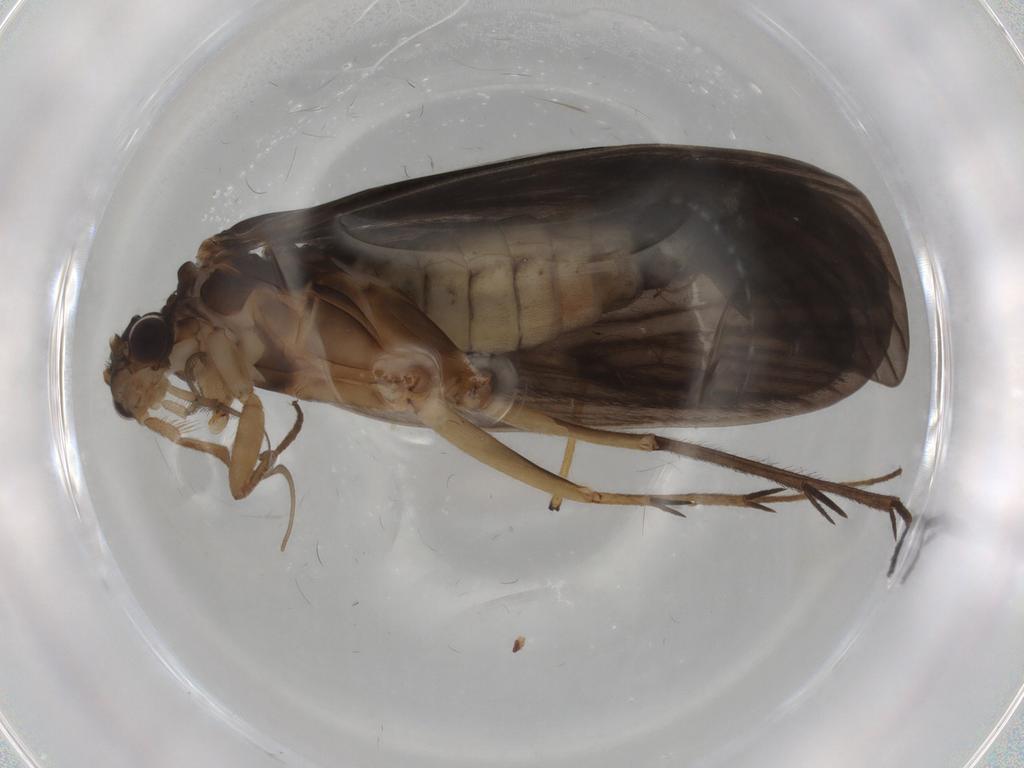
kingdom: Animalia
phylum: Arthropoda
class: Insecta
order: Trichoptera
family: Philopotamidae
